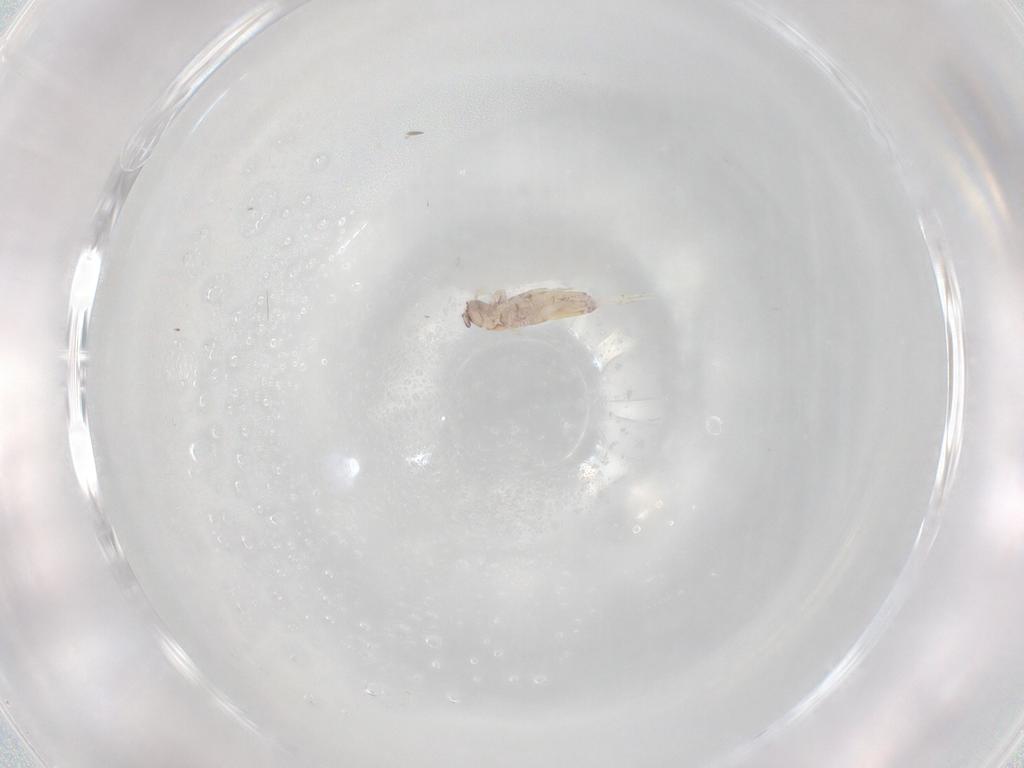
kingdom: Animalia
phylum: Arthropoda
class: Collembola
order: Entomobryomorpha
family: Entomobryidae
